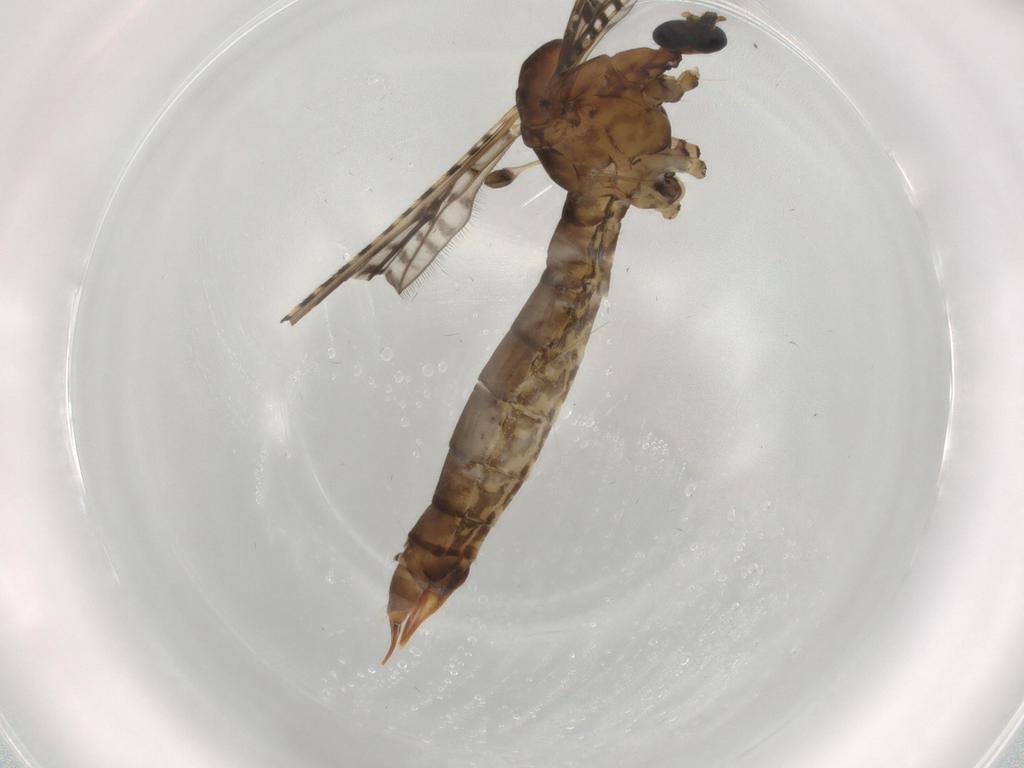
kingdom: Animalia
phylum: Arthropoda
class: Insecta
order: Diptera
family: Limoniidae
